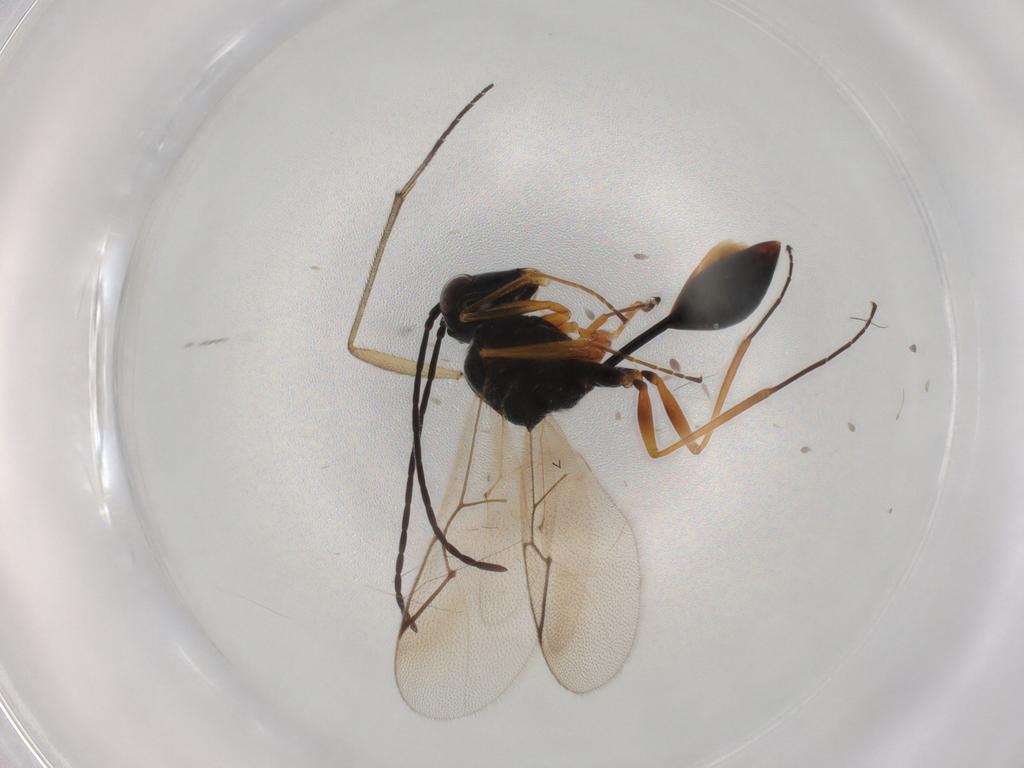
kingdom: Animalia
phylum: Arthropoda
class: Insecta
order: Hymenoptera
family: Figitidae
